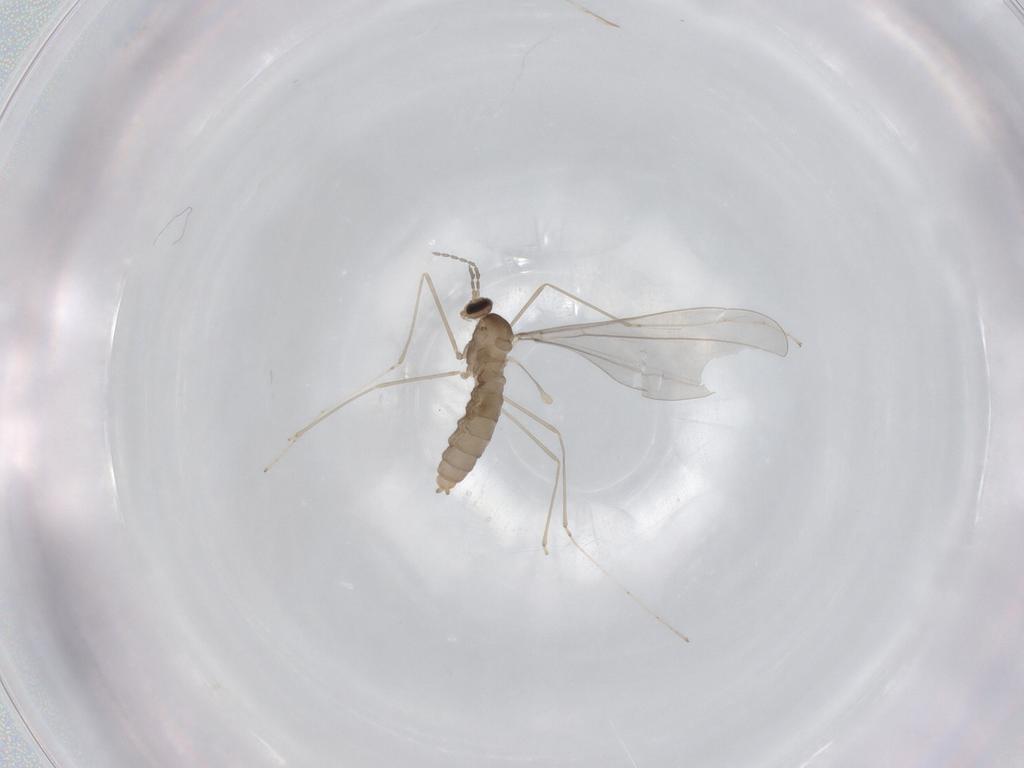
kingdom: Animalia
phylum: Arthropoda
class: Insecta
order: Diptera
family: Cecidomyiidae
